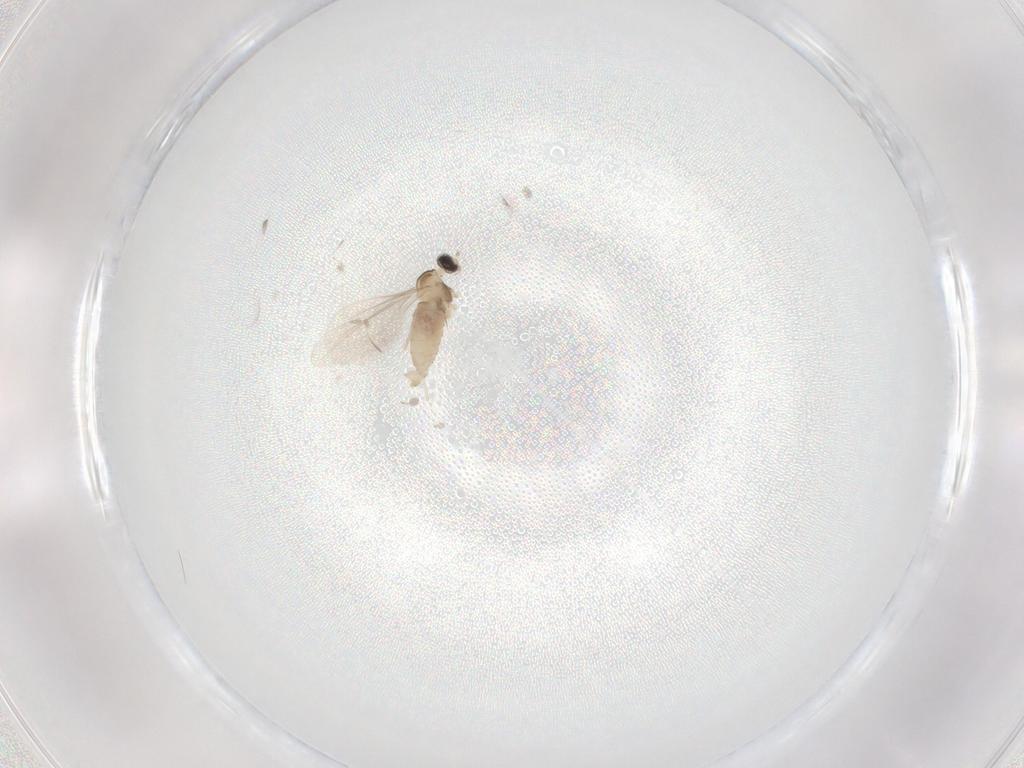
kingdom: Animalia
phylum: Arthropoda
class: Insecta
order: Diptera
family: Cecidomyiidae
